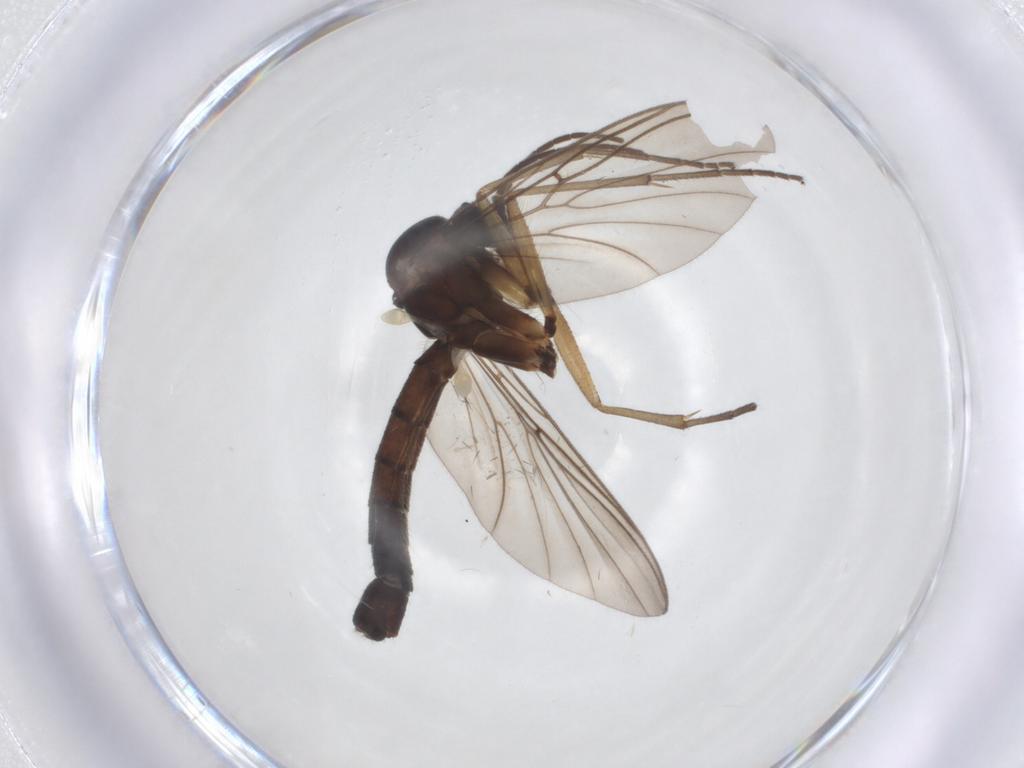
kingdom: Animalia
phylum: Arthropoda
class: Insecta
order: Diptera
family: Mycetophilidae
